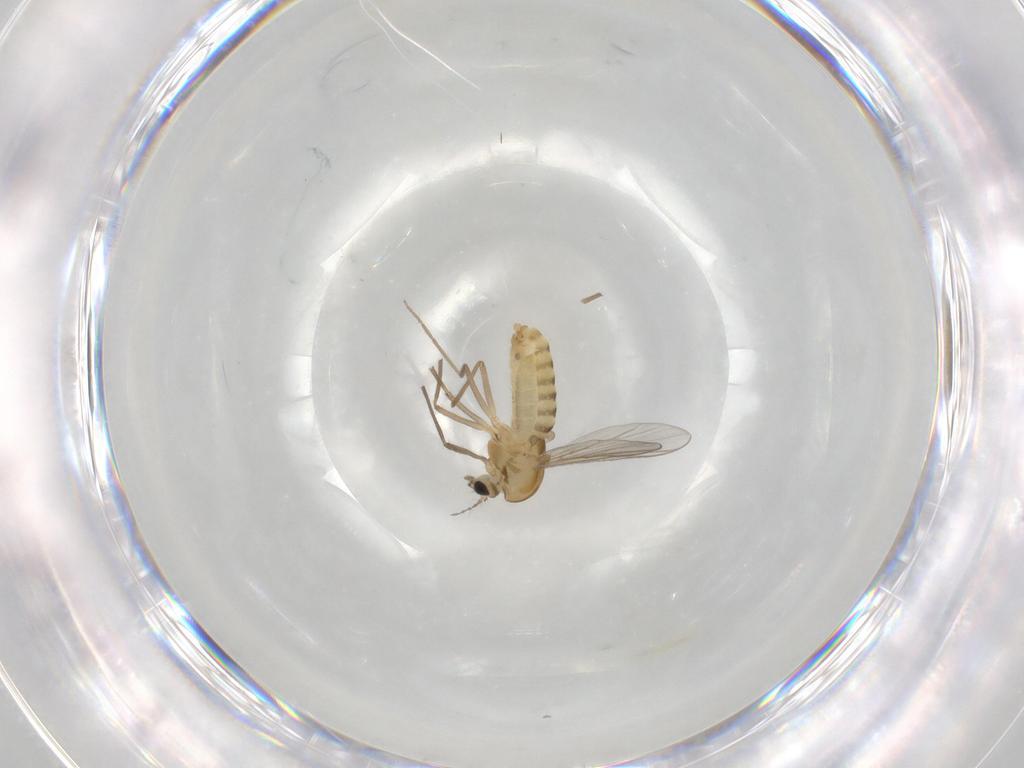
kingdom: Animalia
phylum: Arthropoda
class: Insecta
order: Diptera
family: Chironomidae
